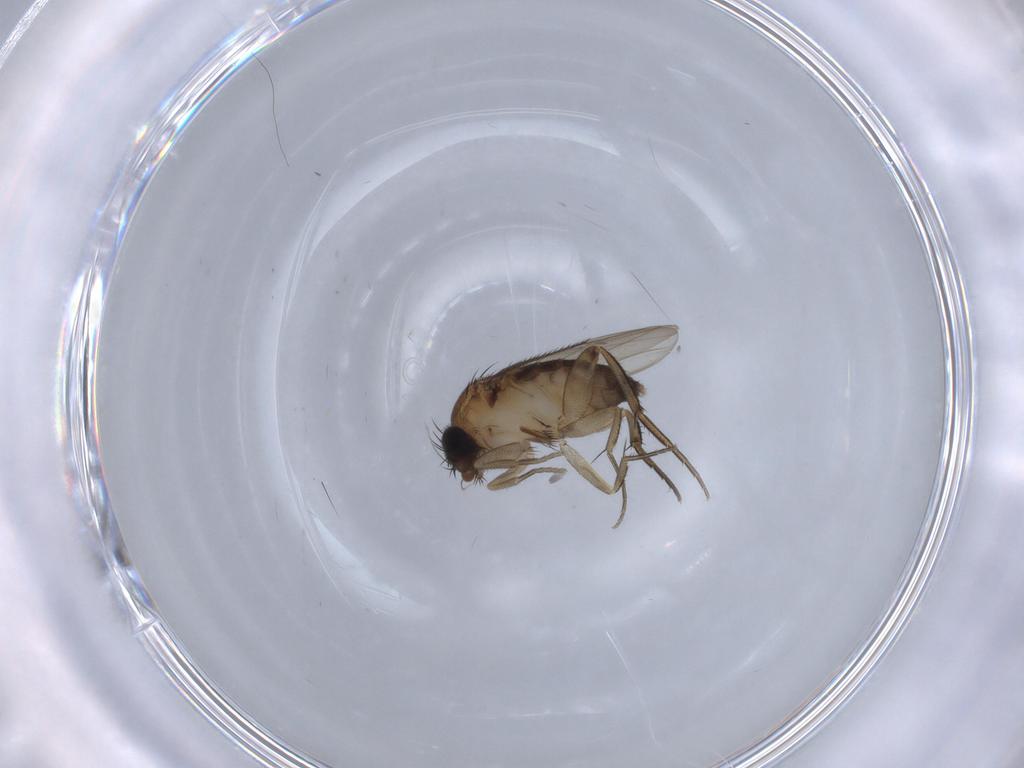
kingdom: Animalia
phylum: Arthropoda
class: Insecta
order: Diptera
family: Phoridae
